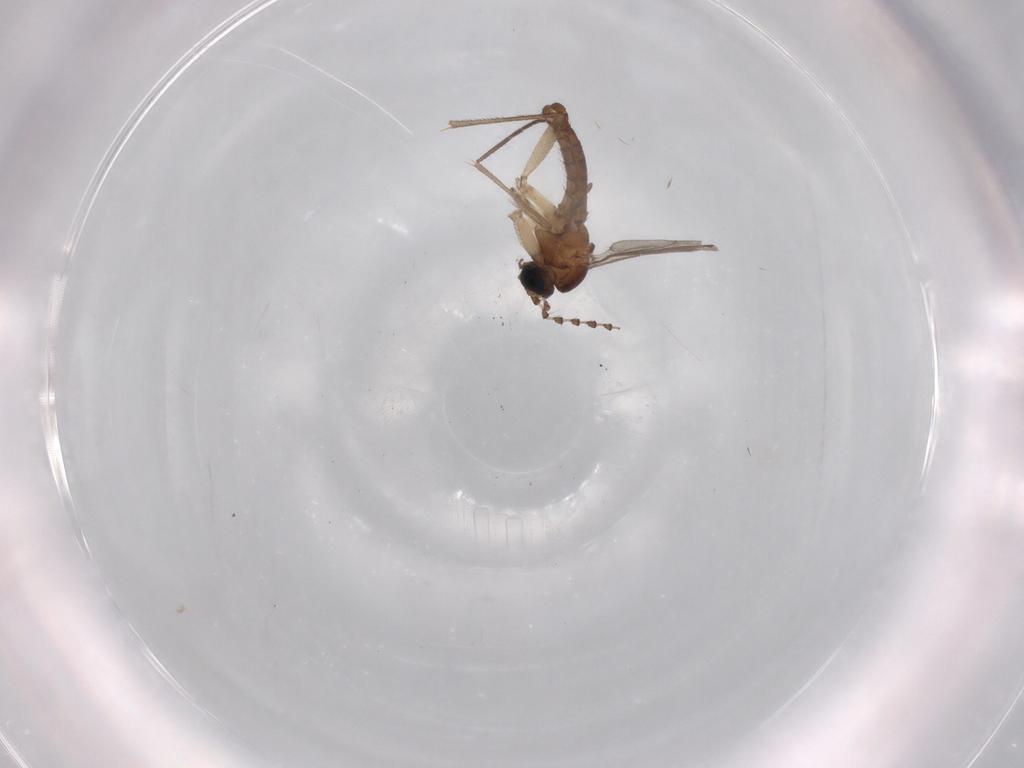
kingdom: Animalia
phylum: Arthropoda
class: Insecta
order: Diptera
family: Sciaridae
